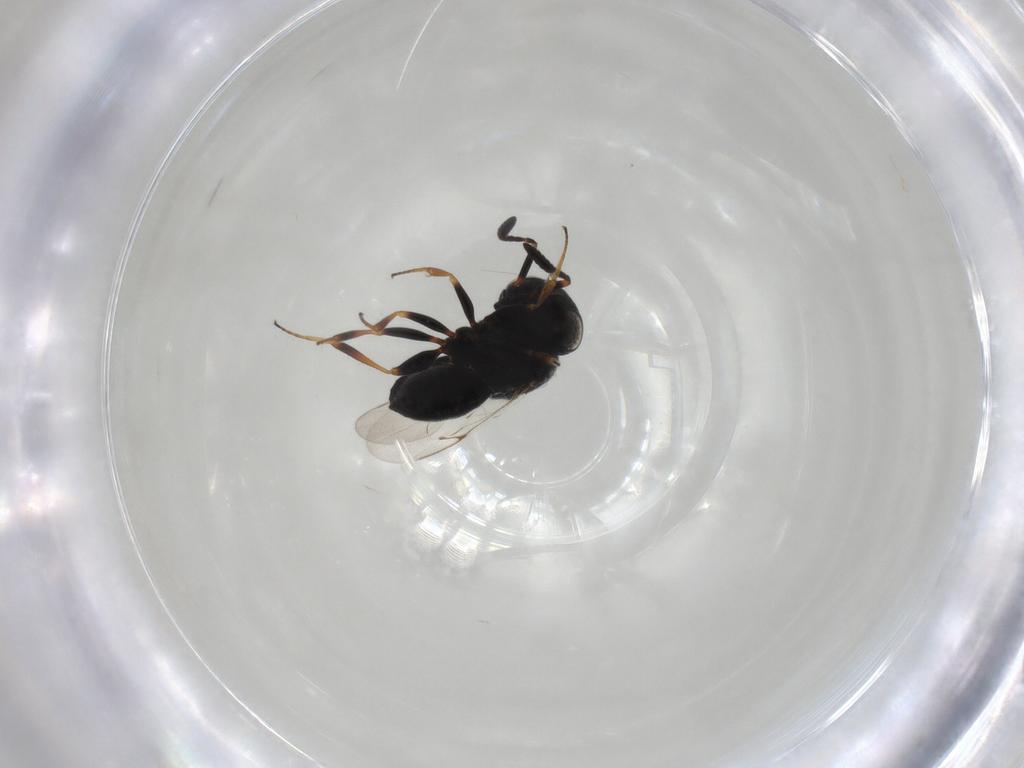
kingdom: Animalia
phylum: Arthropoda
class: Insecta
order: Hymenoptera
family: Scelionidae
